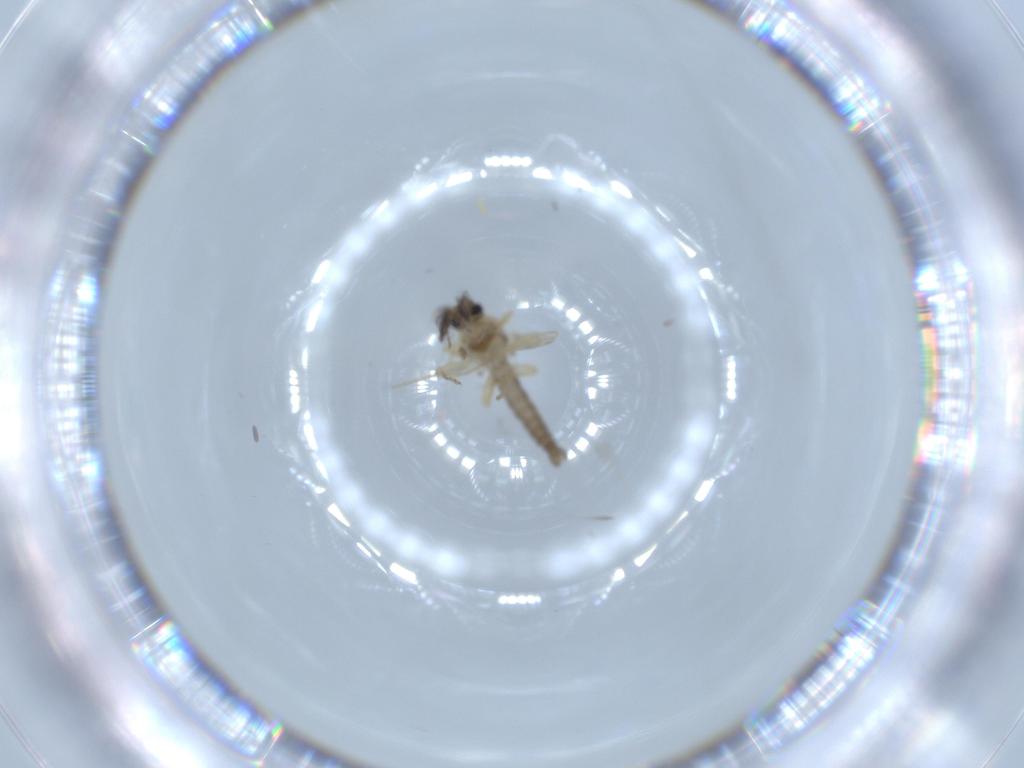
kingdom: Animalia
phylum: Arthropoda
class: Insecta
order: Diptera
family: Ceratopogonidae
